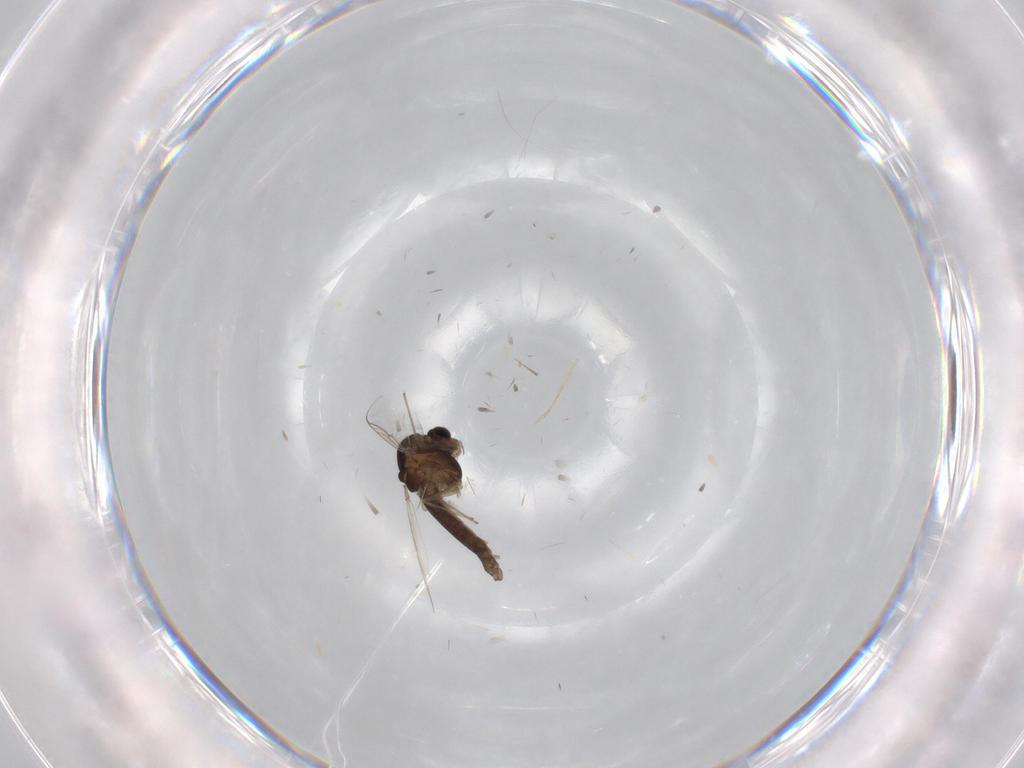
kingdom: Animalia
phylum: Arthropoda
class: Insecta
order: Diptera
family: Chironomidae
